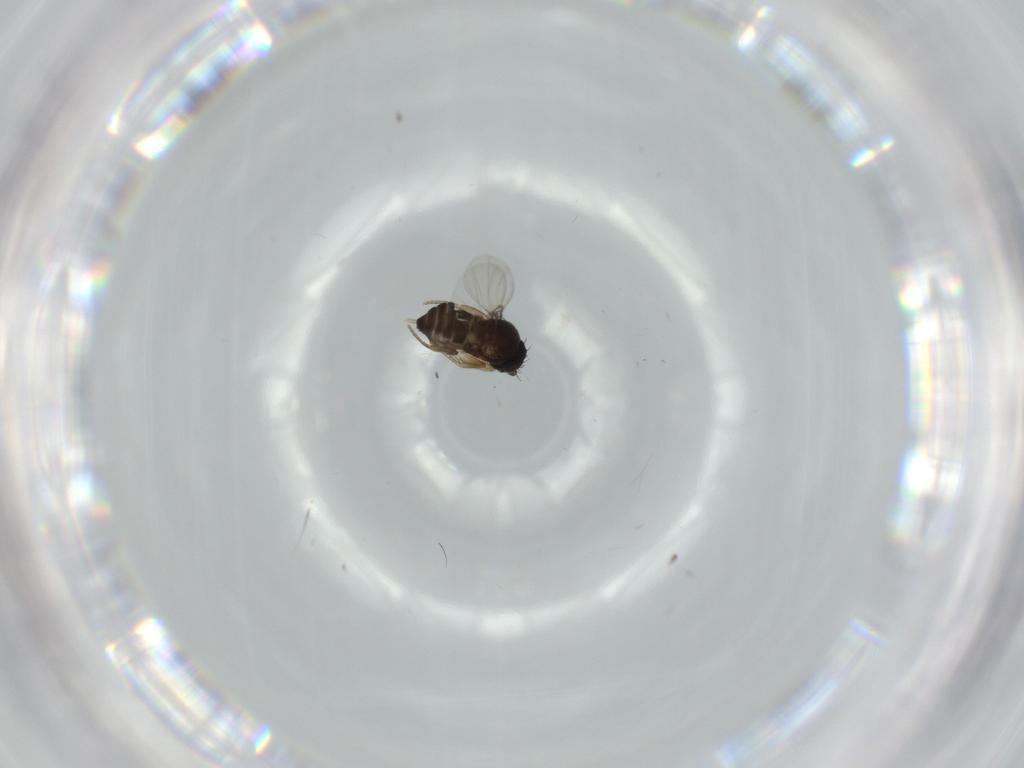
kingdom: Animalia
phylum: Arthropoda
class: Insecta
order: Diptera
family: Phoridae
